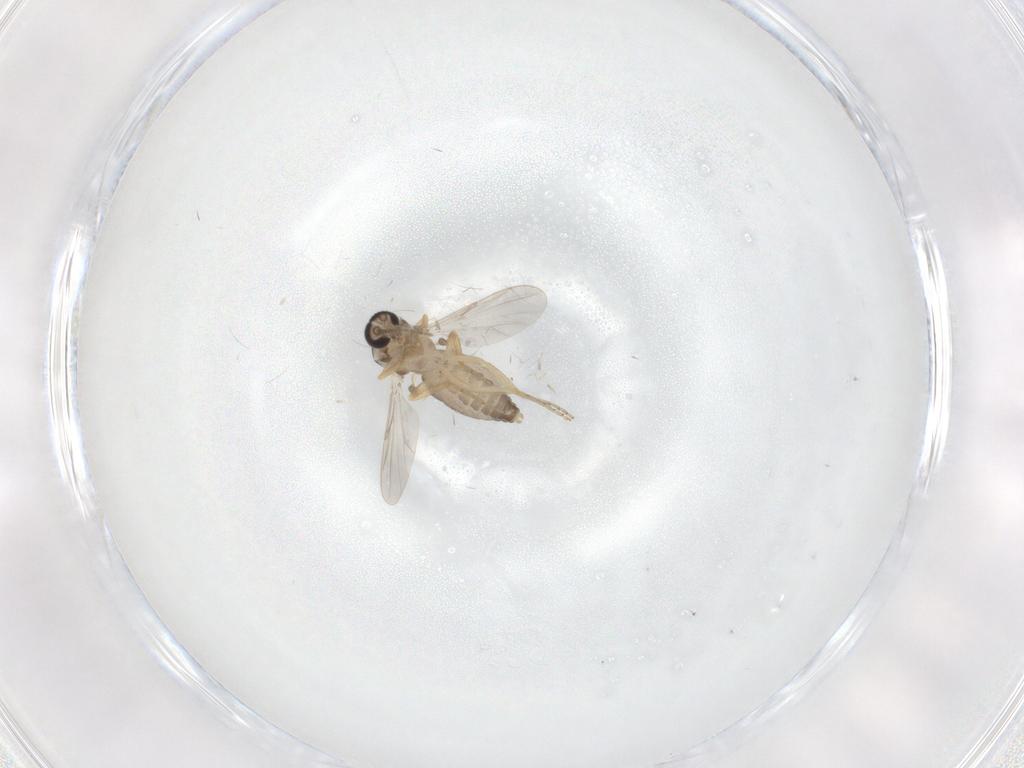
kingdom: Animalia
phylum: Arthropoda
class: Insecta
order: Diptera
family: Ceratopogonidae
